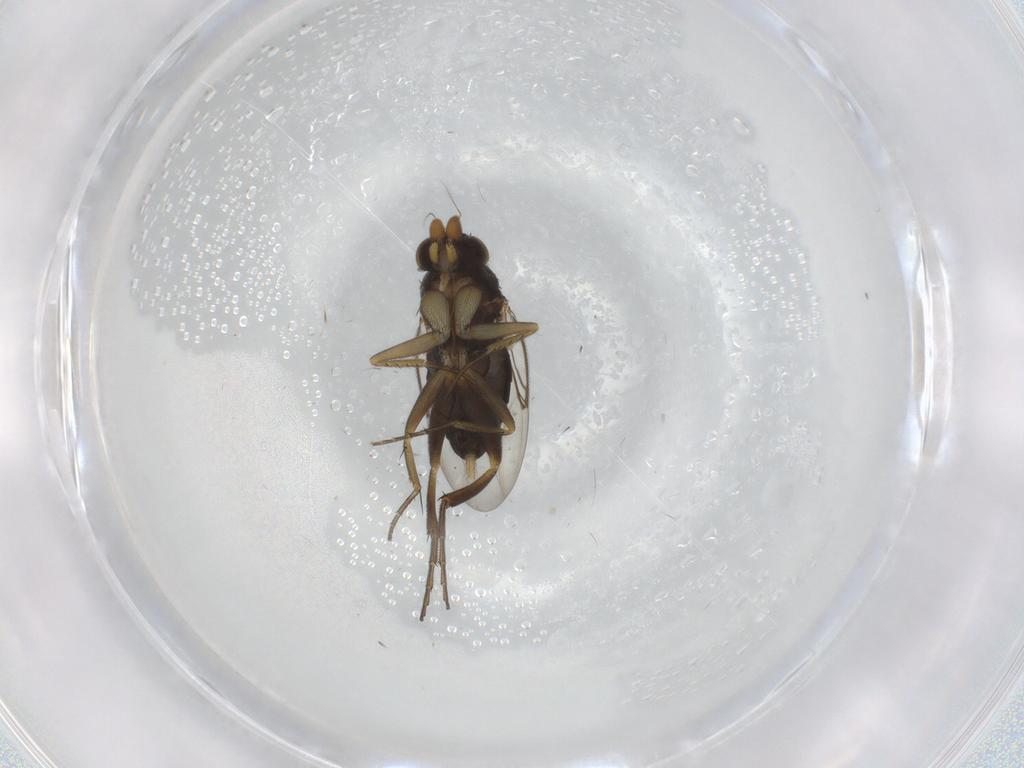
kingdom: Animalia
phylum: Arthropoda
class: Insecta
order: Diptera
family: Phoridae
